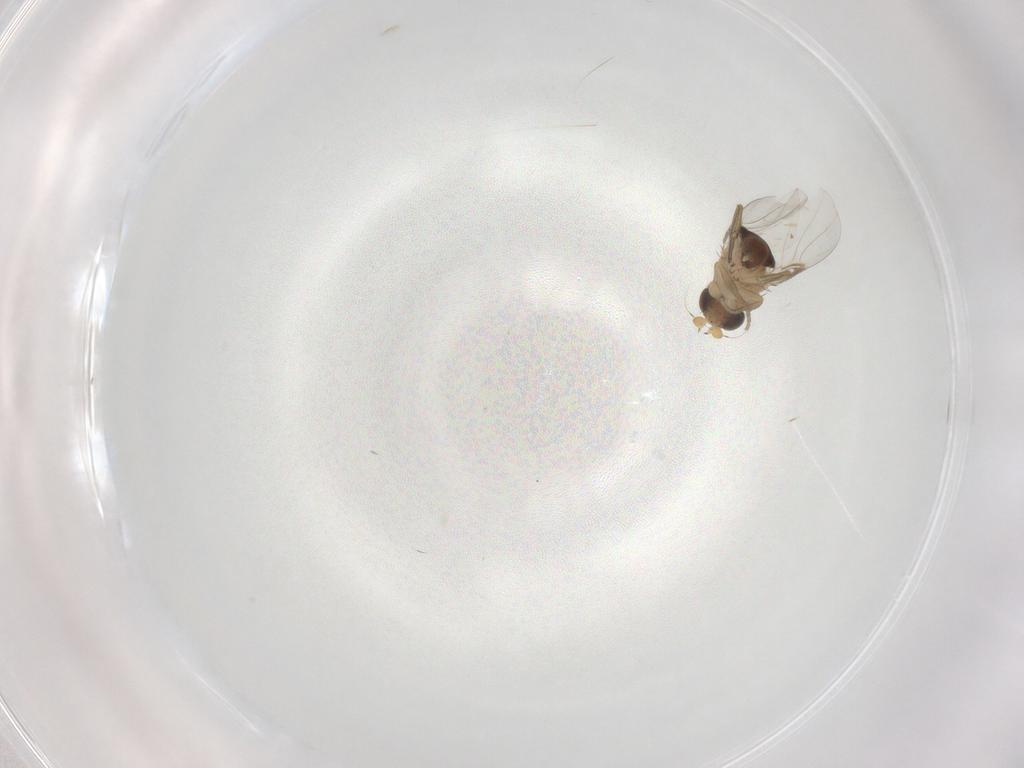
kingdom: Animalia
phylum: Arthropoda
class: Insecta
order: Diptera
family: Phoridae
